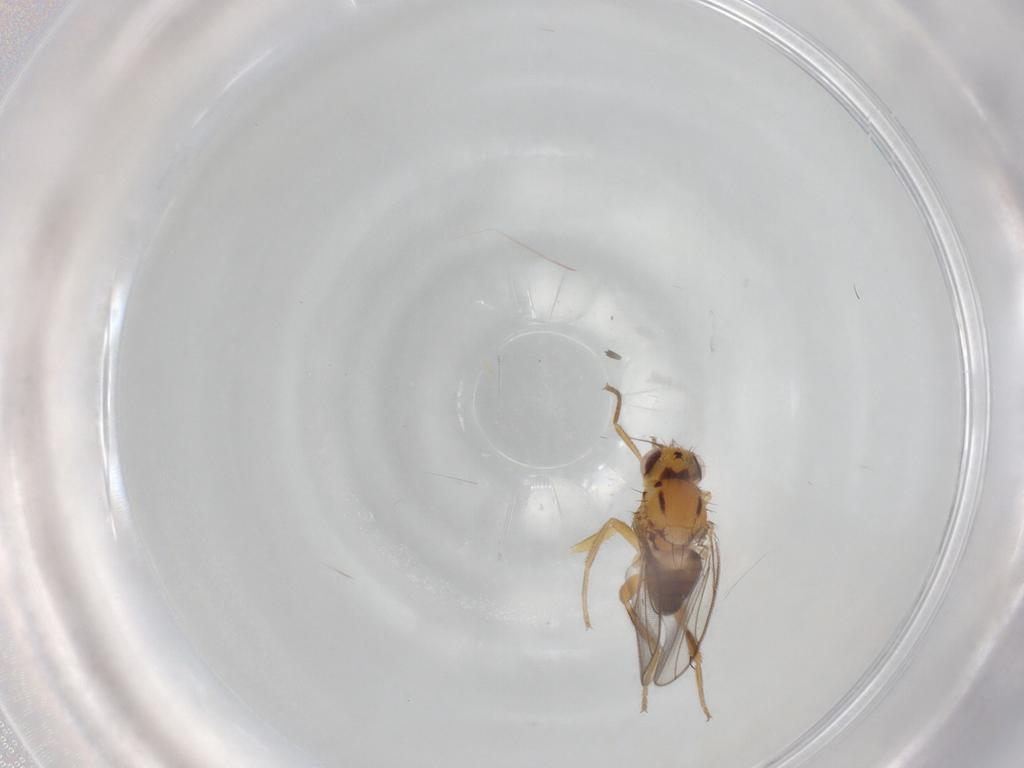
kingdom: Animalia
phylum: Arthropoda
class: Insecta
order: Diptera
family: Chloropidae
